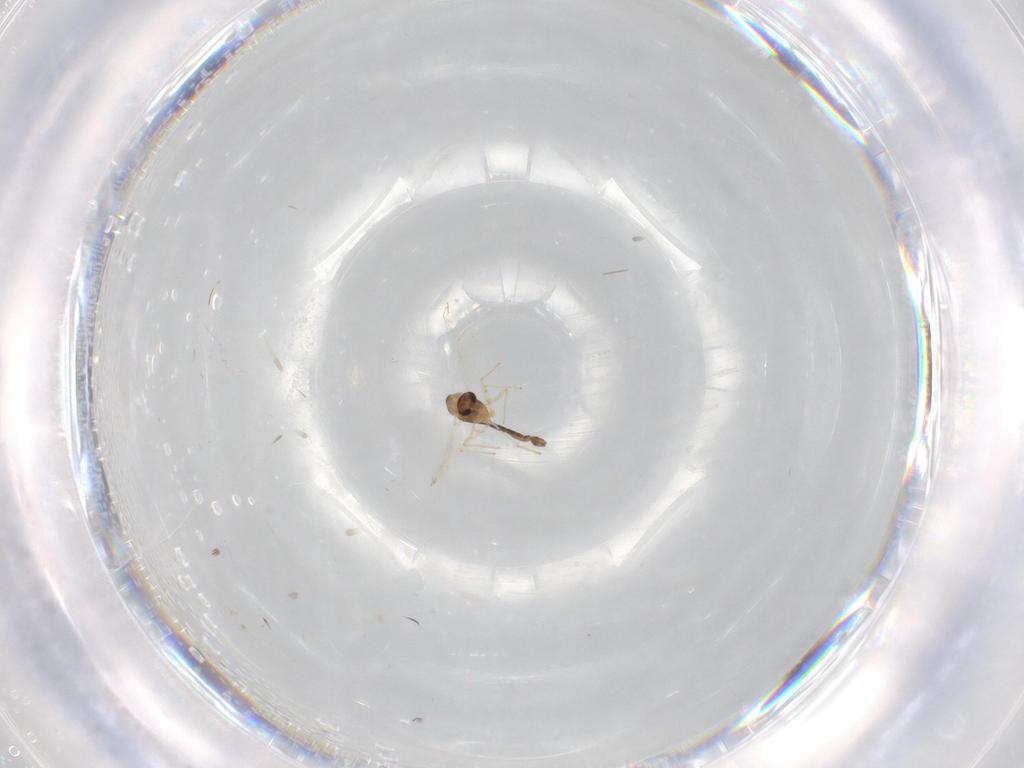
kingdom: Animalia
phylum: Arthropoda
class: Insecta
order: Diptera
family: Chironomidae
